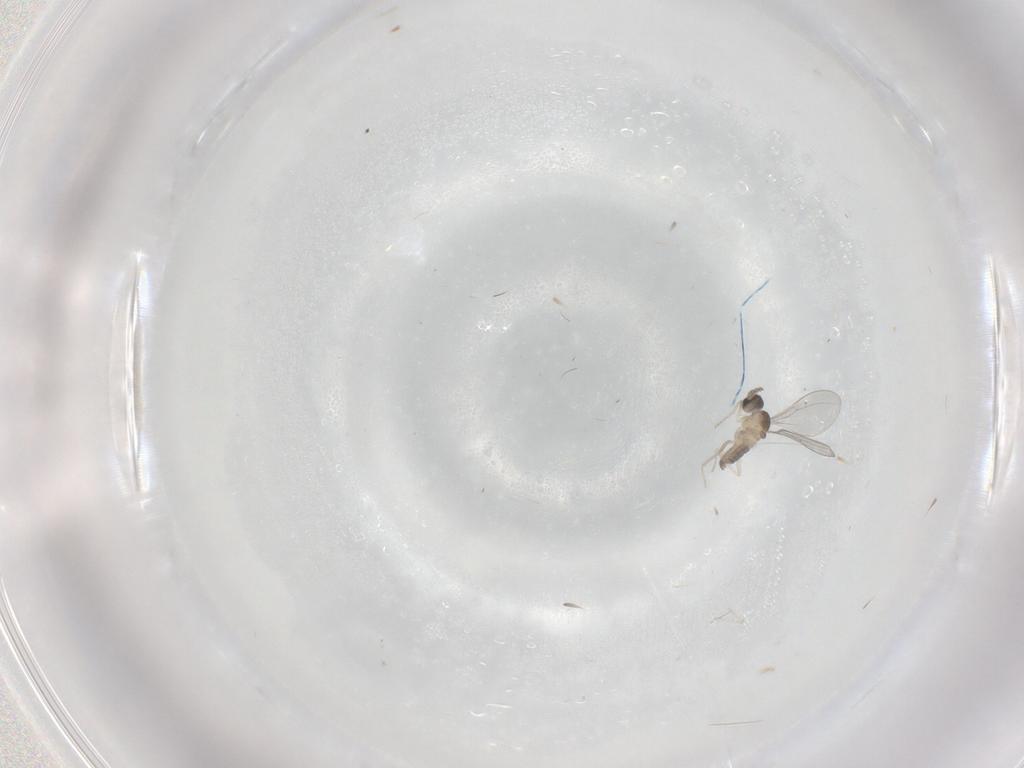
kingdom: Animalia
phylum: Arthropoda
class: Insecta
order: Diptera
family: Cecidomyiidae
